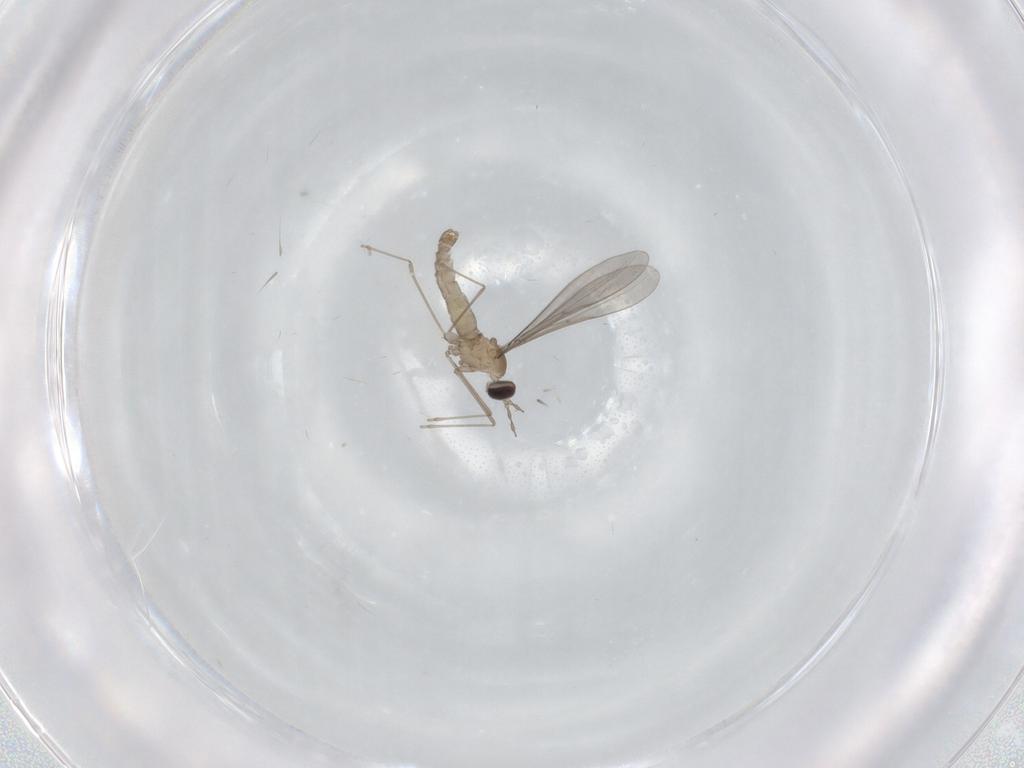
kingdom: Animalia
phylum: Arthropoda
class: Insecta
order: Diptera
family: Cecidomyiidae
